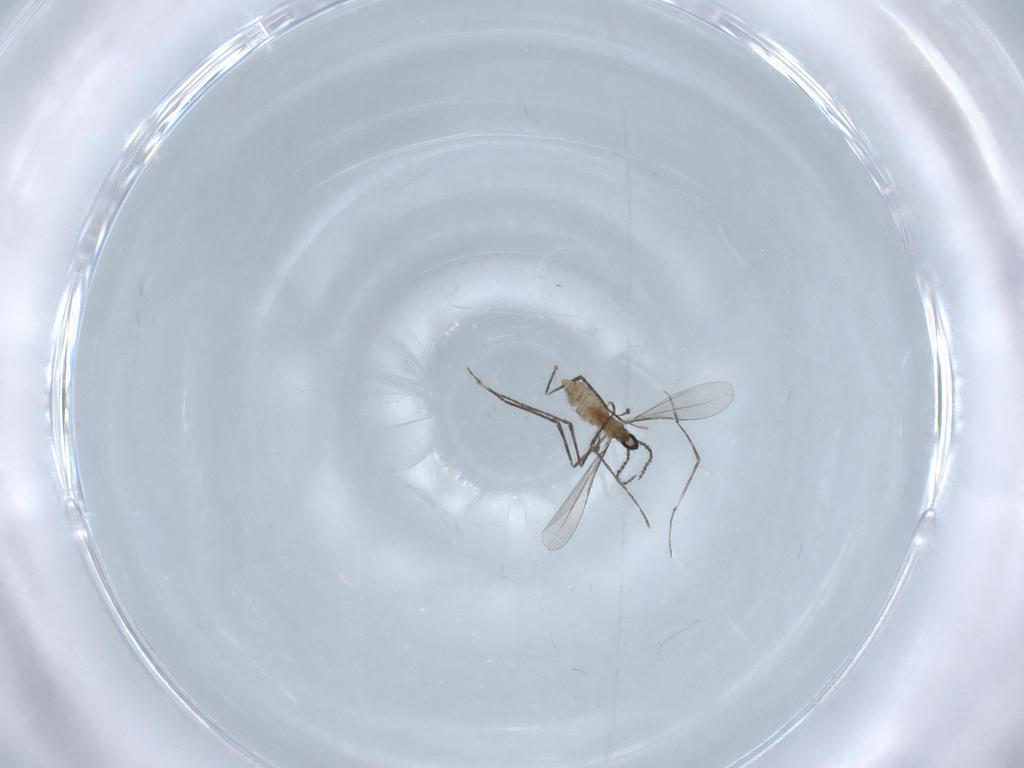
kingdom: Animalia
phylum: Arthropoda
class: Insecta
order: Diptera
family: Cecidomyiidae
